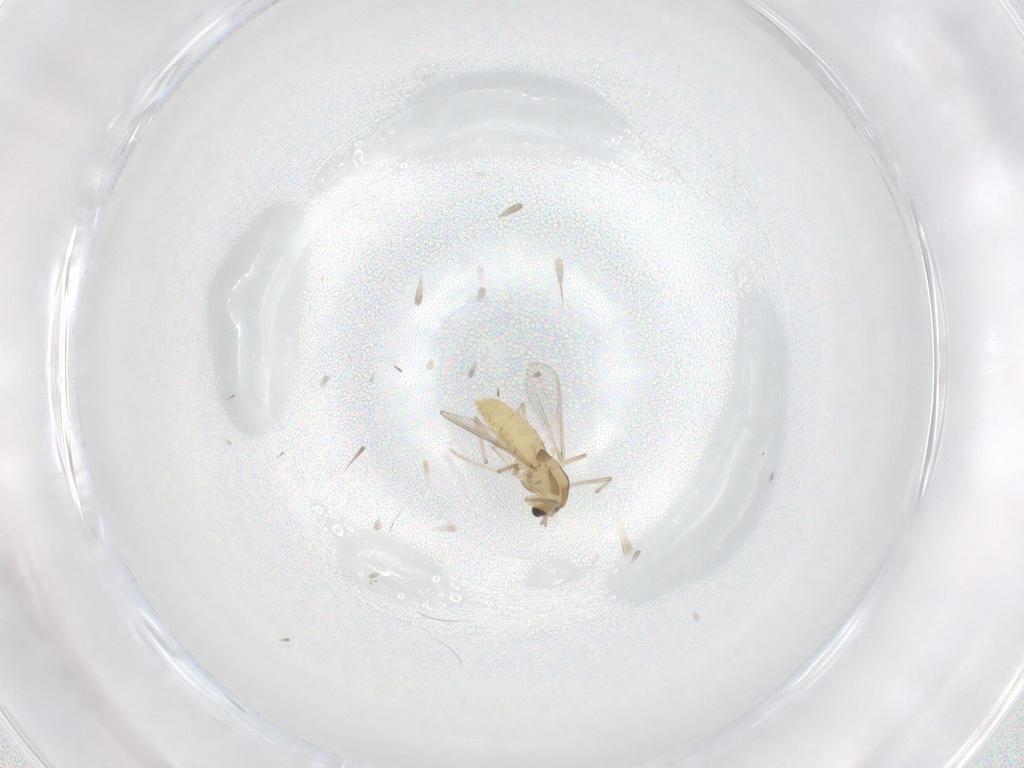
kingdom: Animalia
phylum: Arthropoda
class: Insecta
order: Diptera
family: Chironomidae
